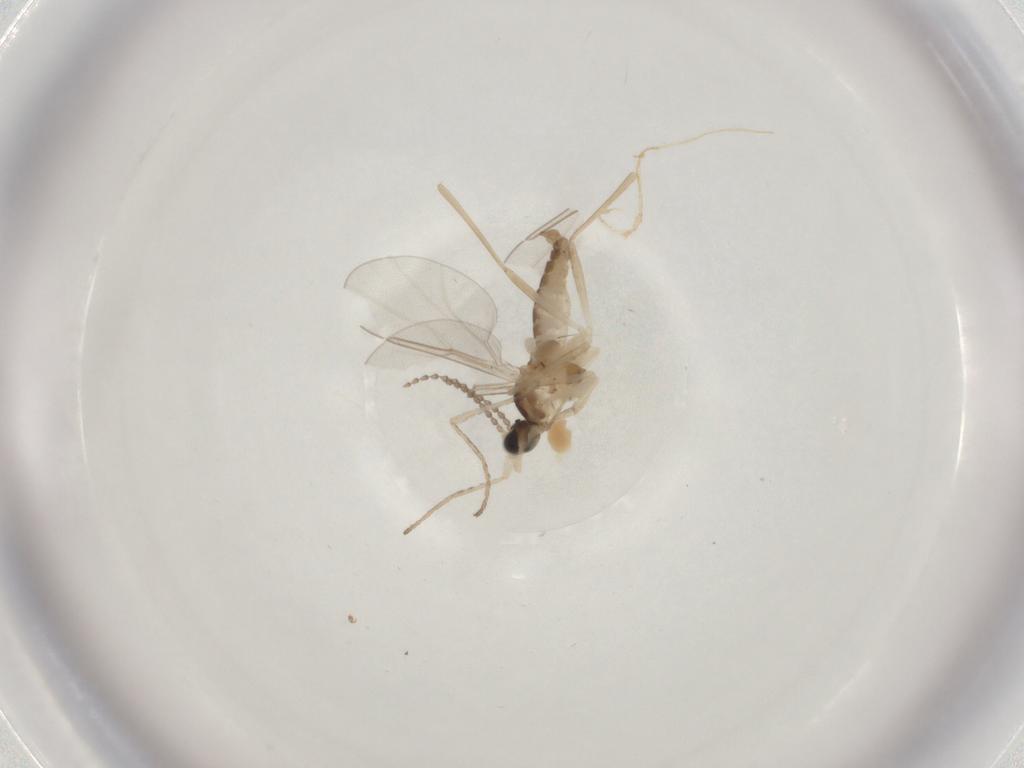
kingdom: Animalia
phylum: Arthropoda
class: Insecta
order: Diptera
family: Cecidomyiidae
